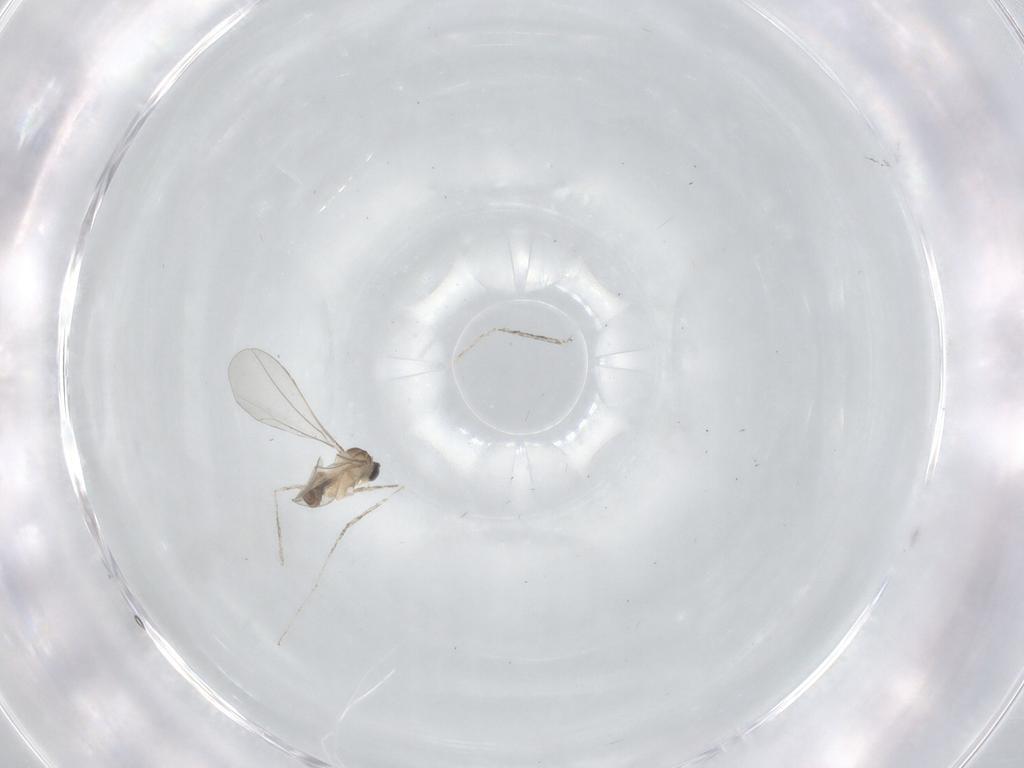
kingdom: Animalia
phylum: Arthropoda
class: Insecta
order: Diptera
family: Cecidomyiidae
